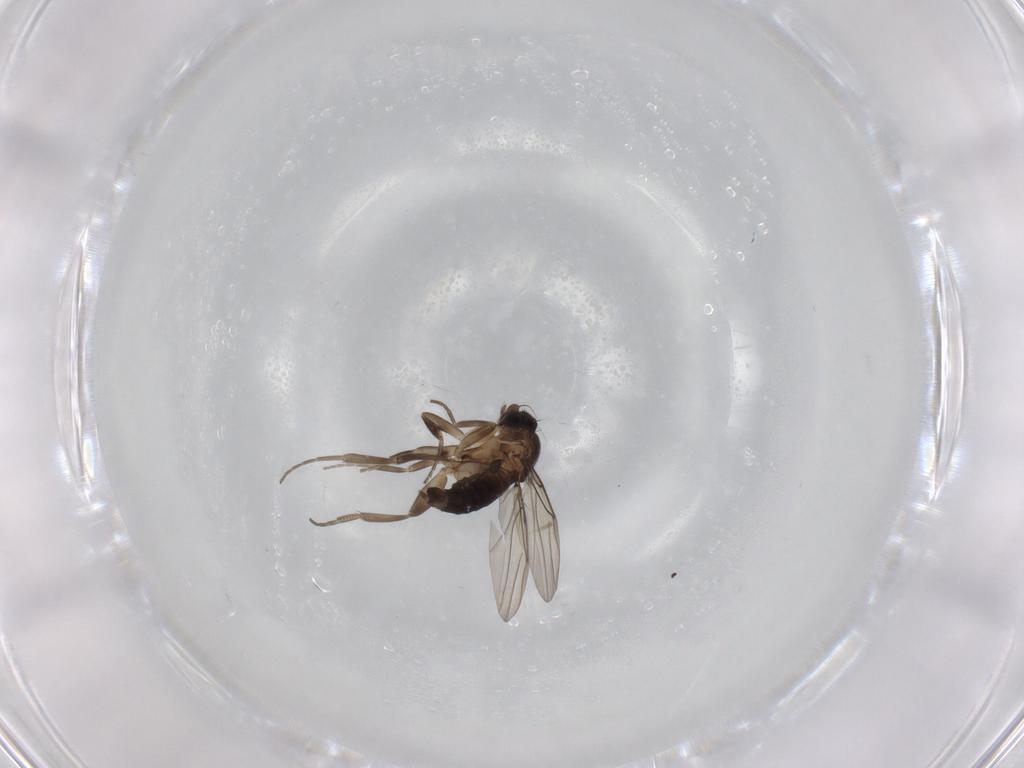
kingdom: Animalia
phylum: Arthropoda
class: Insecta
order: Diptera
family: Phoridae
